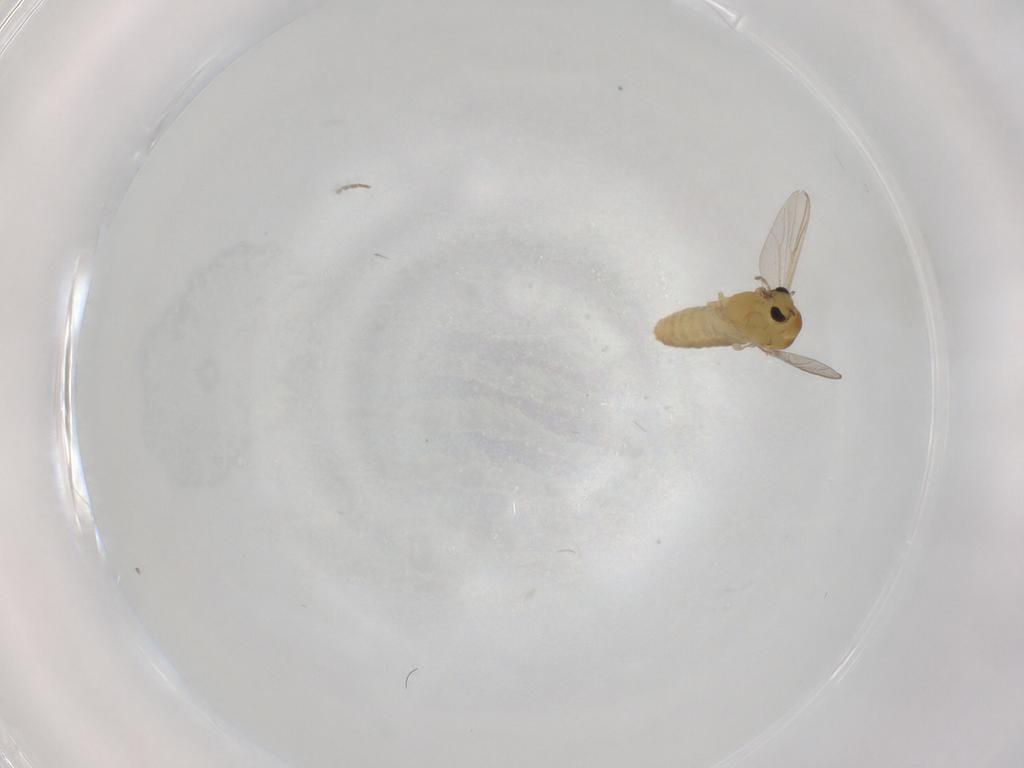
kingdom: Animalia
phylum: Arthropoda
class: Insecta
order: Diptera
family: Chironomidae
